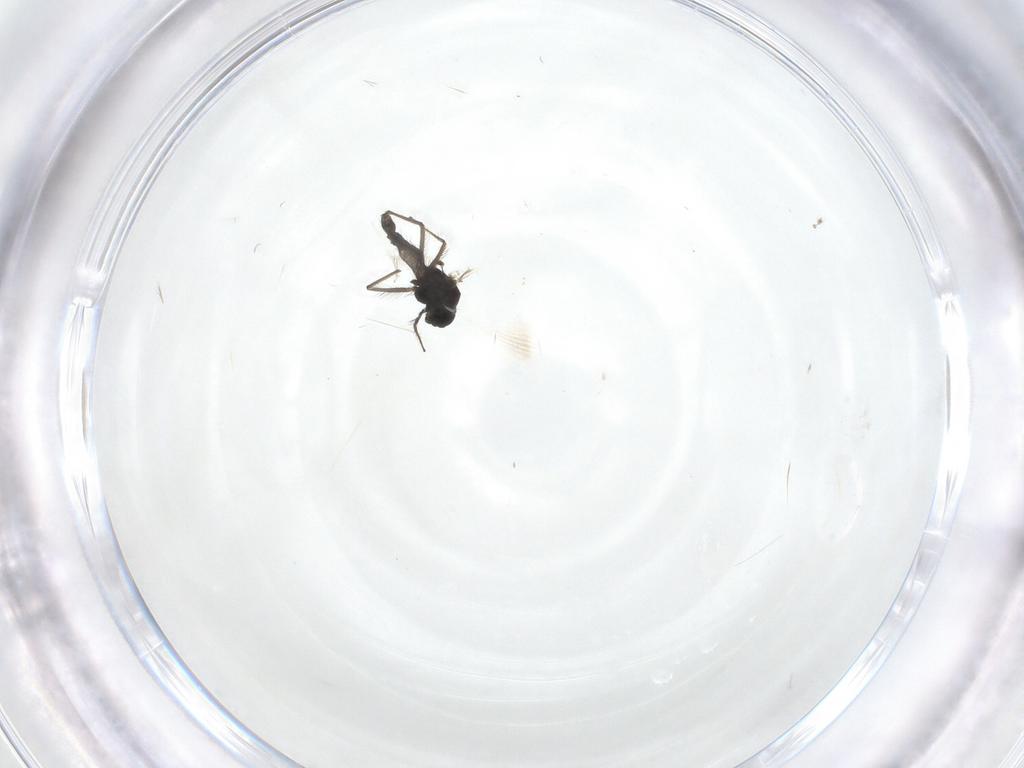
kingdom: Animalia
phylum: Arthropoda
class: Insecta
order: Diptera
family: Cecidomyiidae
